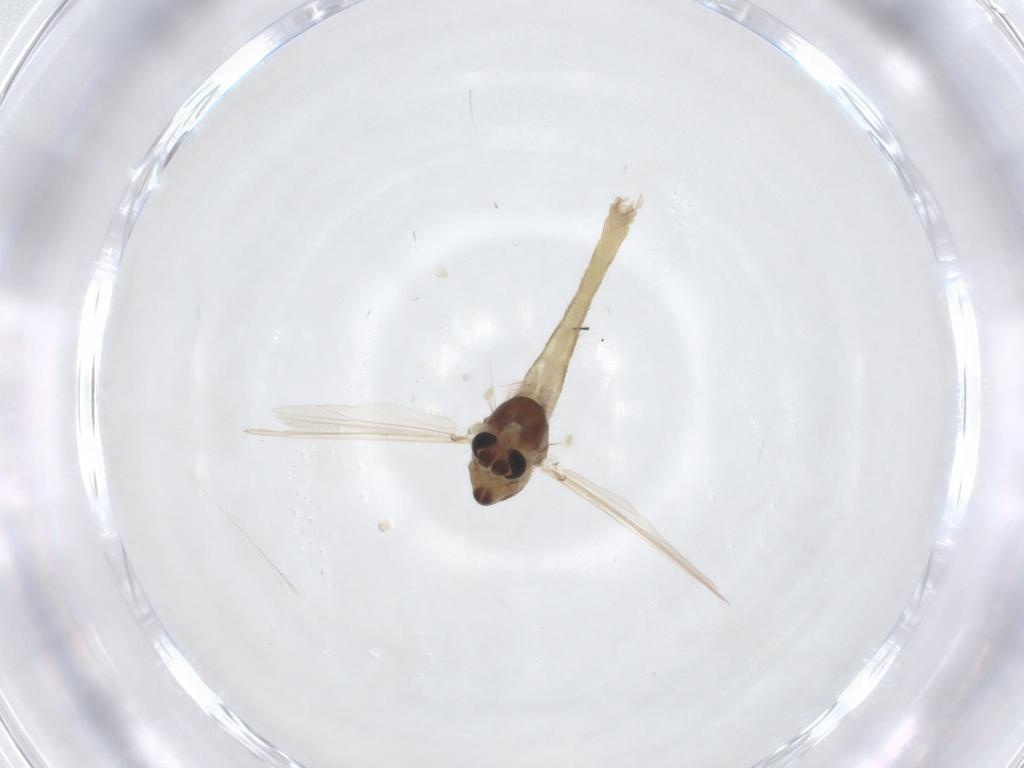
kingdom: Animalia
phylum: Arthropoda
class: Insecta
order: Diptera
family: Chironomidae
